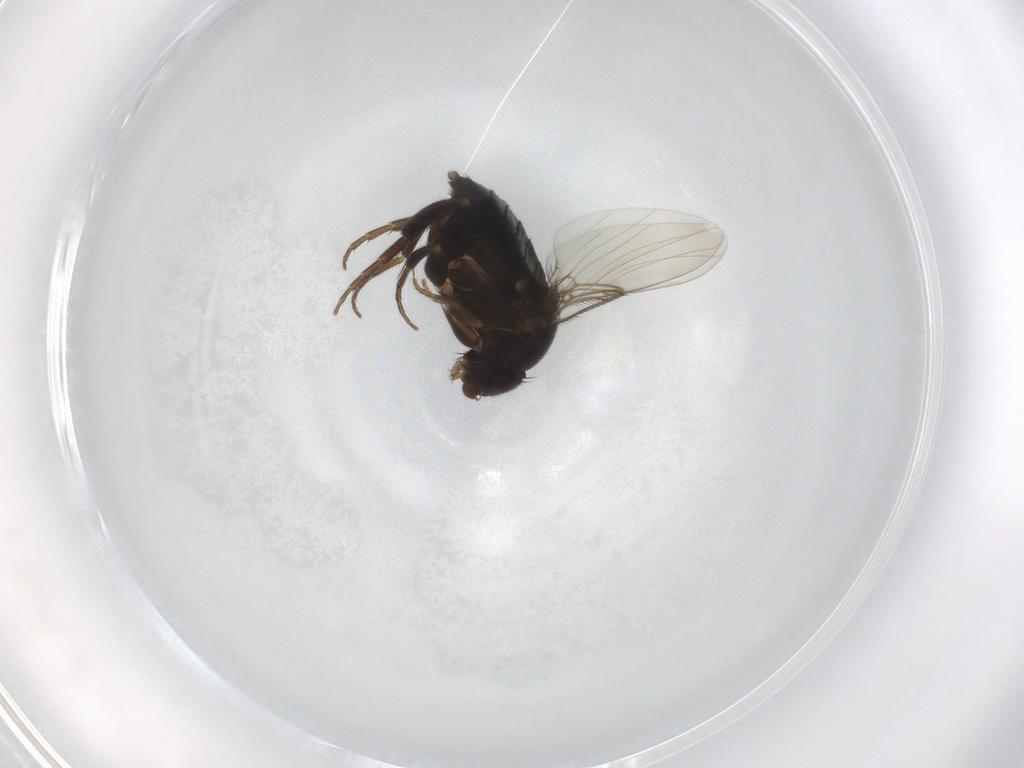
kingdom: Animalia
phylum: Arthropoda
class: Insecta
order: Diptera
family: Phoridae
